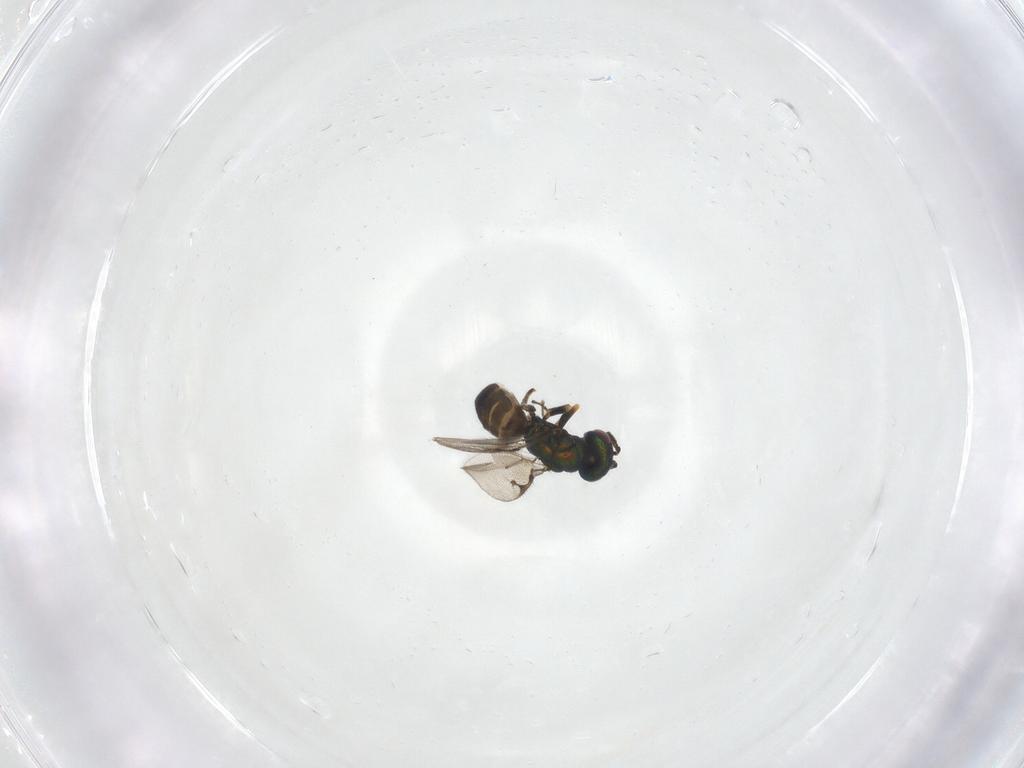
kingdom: Animalia
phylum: Arthropoda
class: Insecta
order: Hymenoptera
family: Pteromalidae
